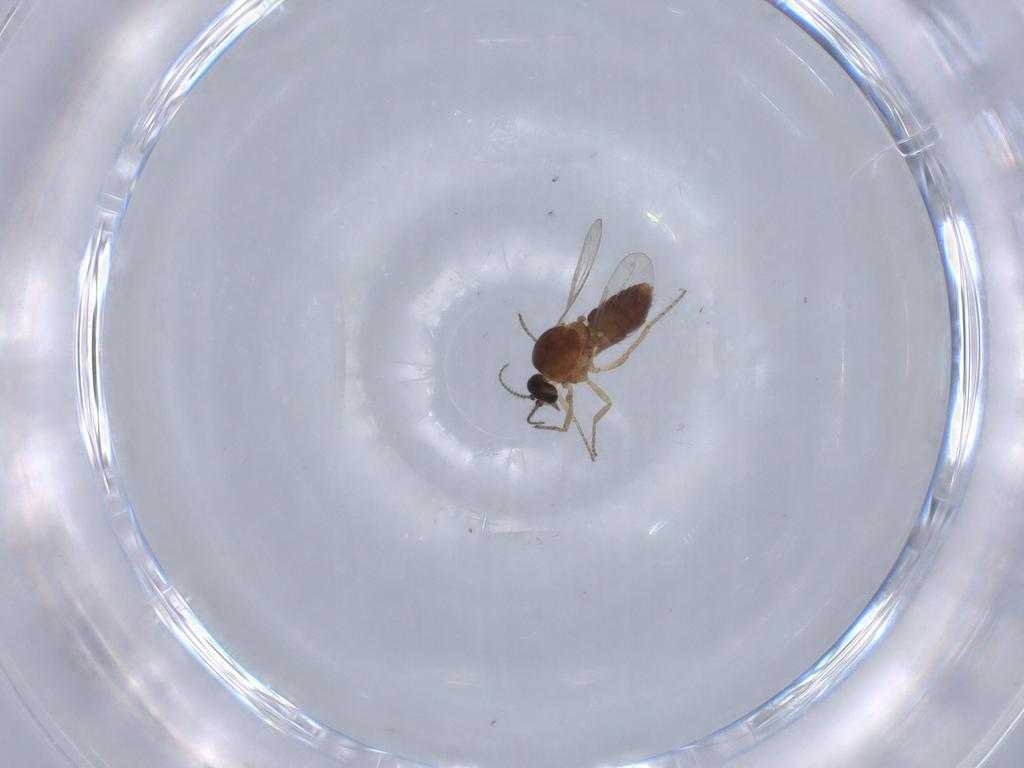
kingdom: Animalia
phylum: Arthropoda
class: Insecta
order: Diptera
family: Ceratopogonidae
